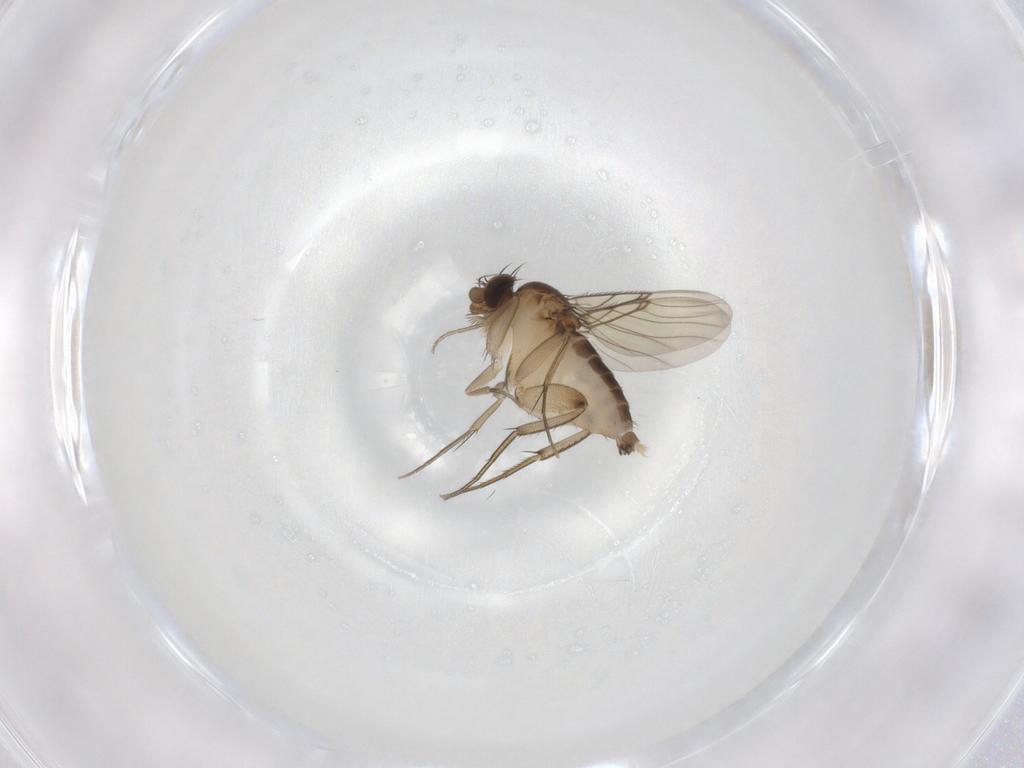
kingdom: Animalia
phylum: Arthropoda
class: Insecta
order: Diptera
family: Phoridae
